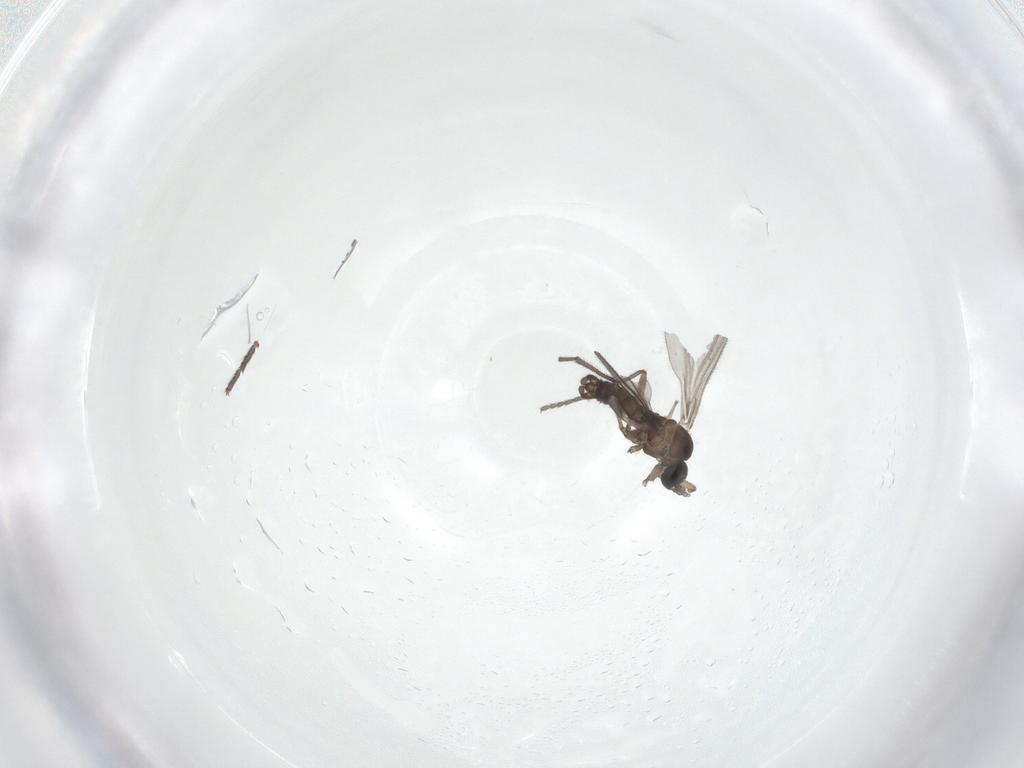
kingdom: Animalia
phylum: Arthropoda
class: Insecta
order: Diptera
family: Sciaridae
